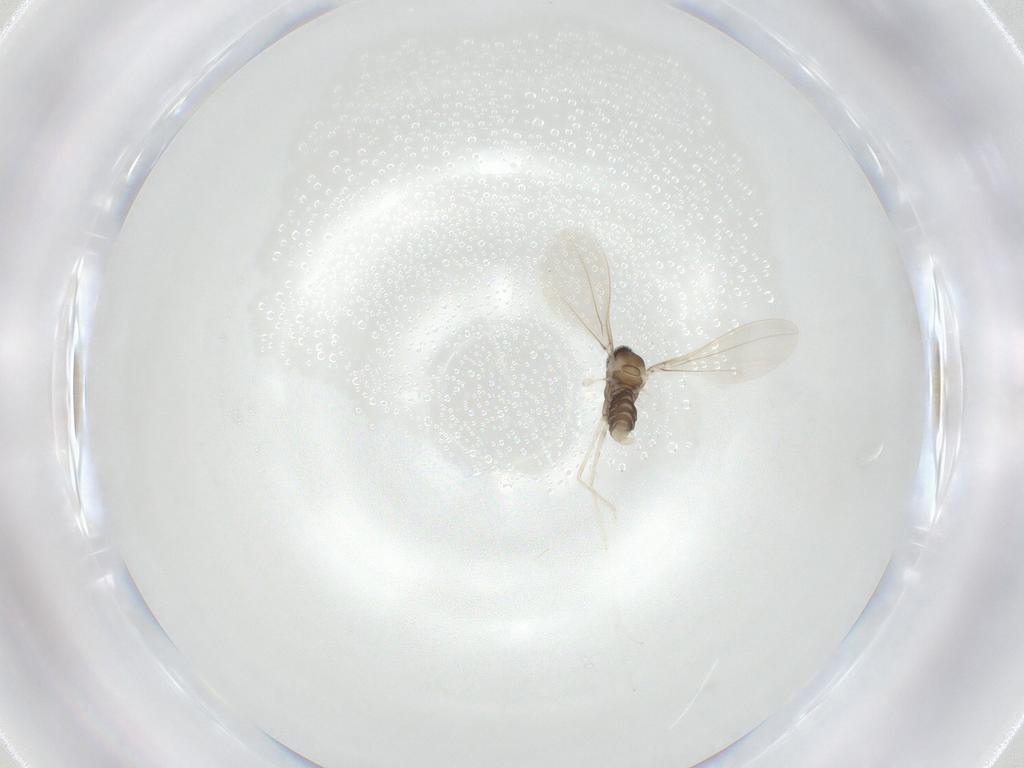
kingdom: Animalia
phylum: Arthropoda
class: Insecta
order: Diptera
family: Cecidomyiidae
